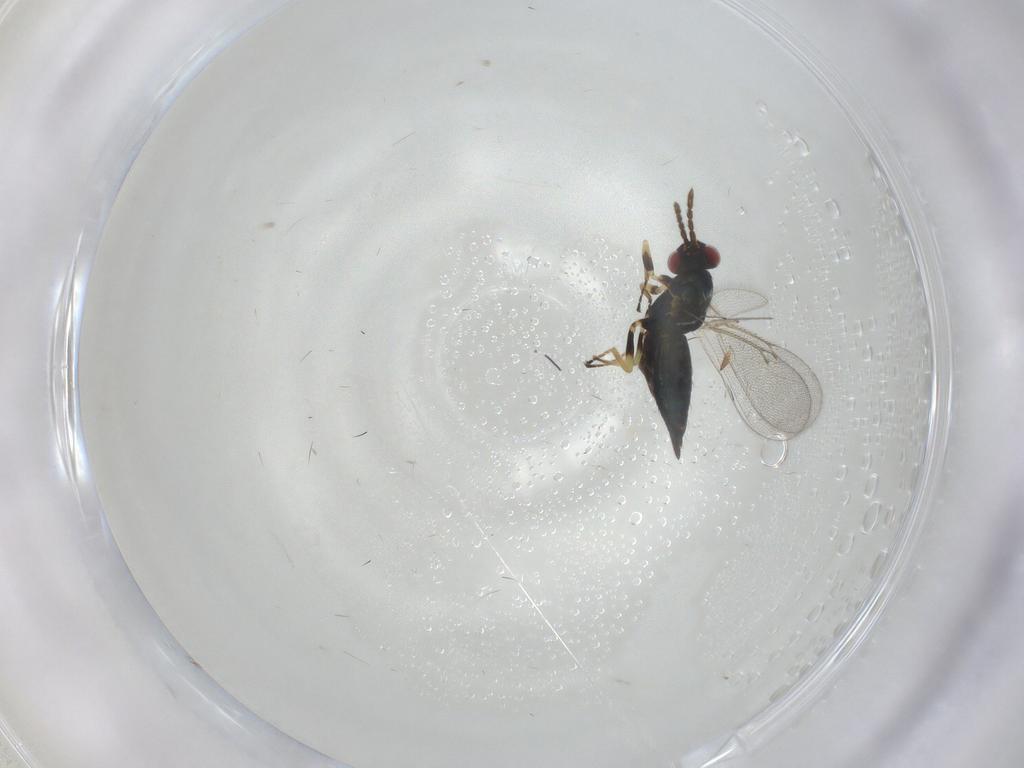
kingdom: Animalia
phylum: Arthropoda
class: Insecta
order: Hymenoptera
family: Eulophidae
